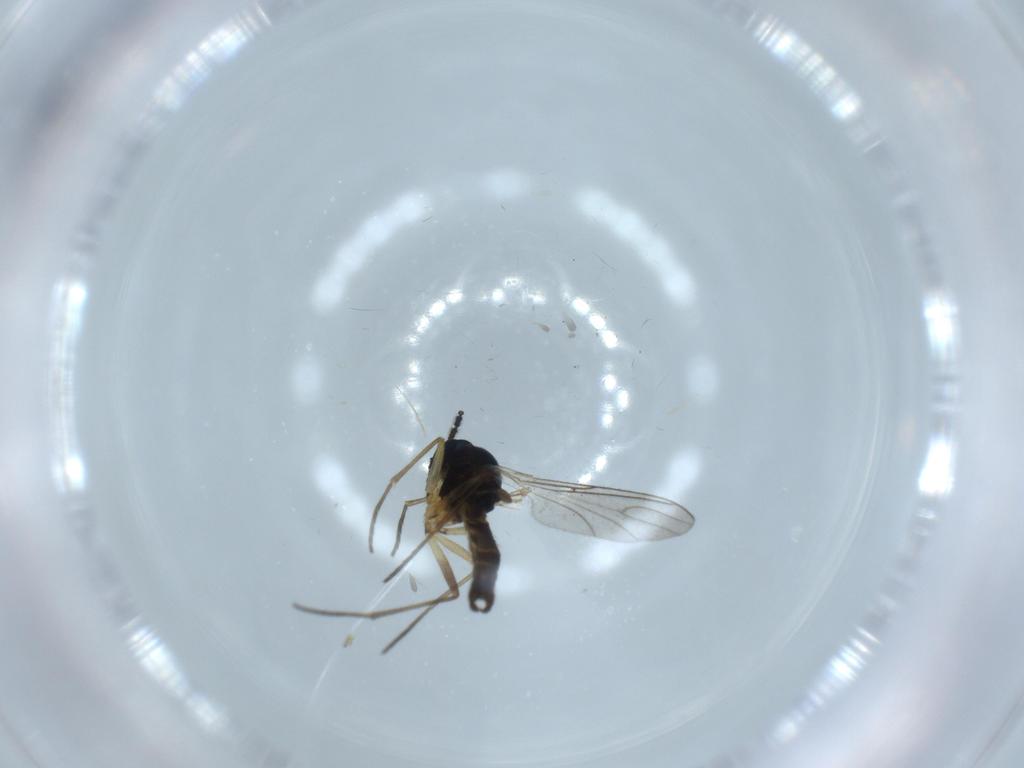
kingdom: Animalia
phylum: Arthropoda
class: Insecta
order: Diptera
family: Sciaridae
